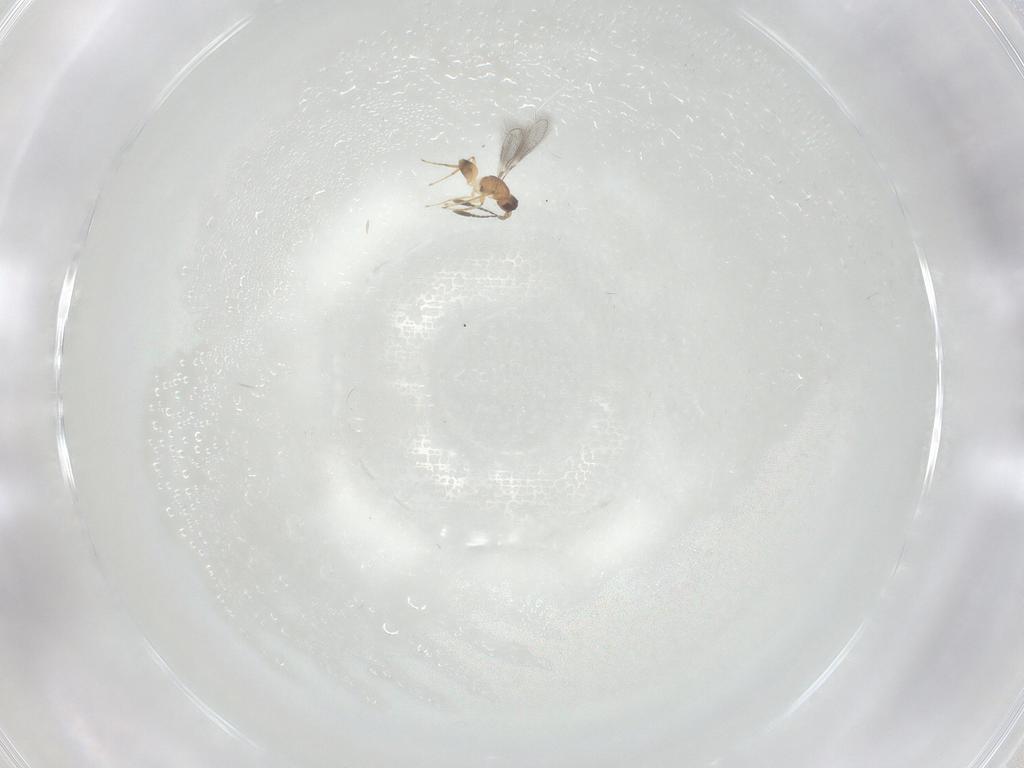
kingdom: Animalia
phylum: Arthropoda
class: Insecta
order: Hymenoptera
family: Mymaridae
